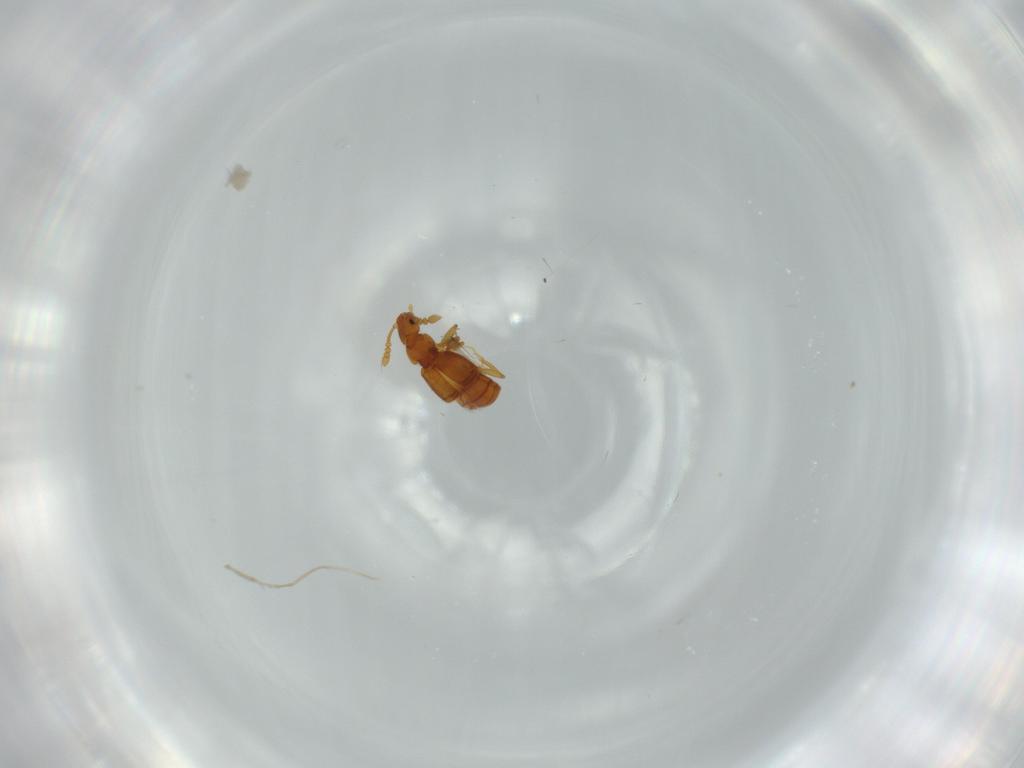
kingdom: Animalia
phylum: Arthropoda
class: Insecta
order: Coleoptera
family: Staphylinidae
